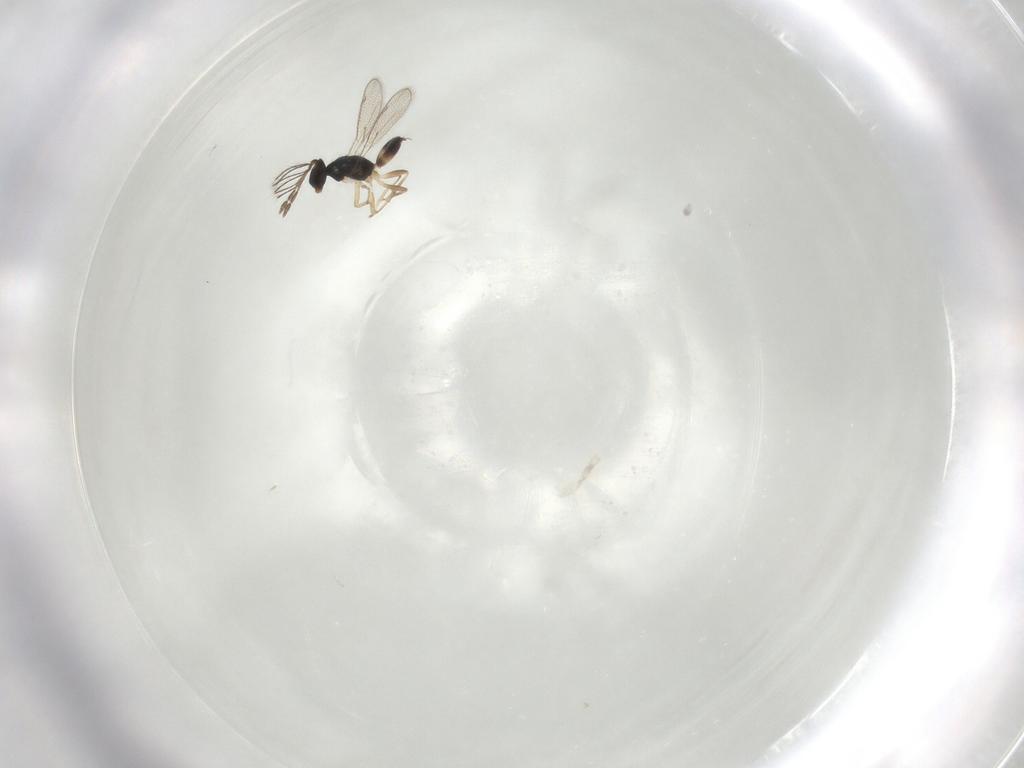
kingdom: Animalia
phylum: Arthropoda
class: Insecta
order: Hymenoptera
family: Eulophidae
